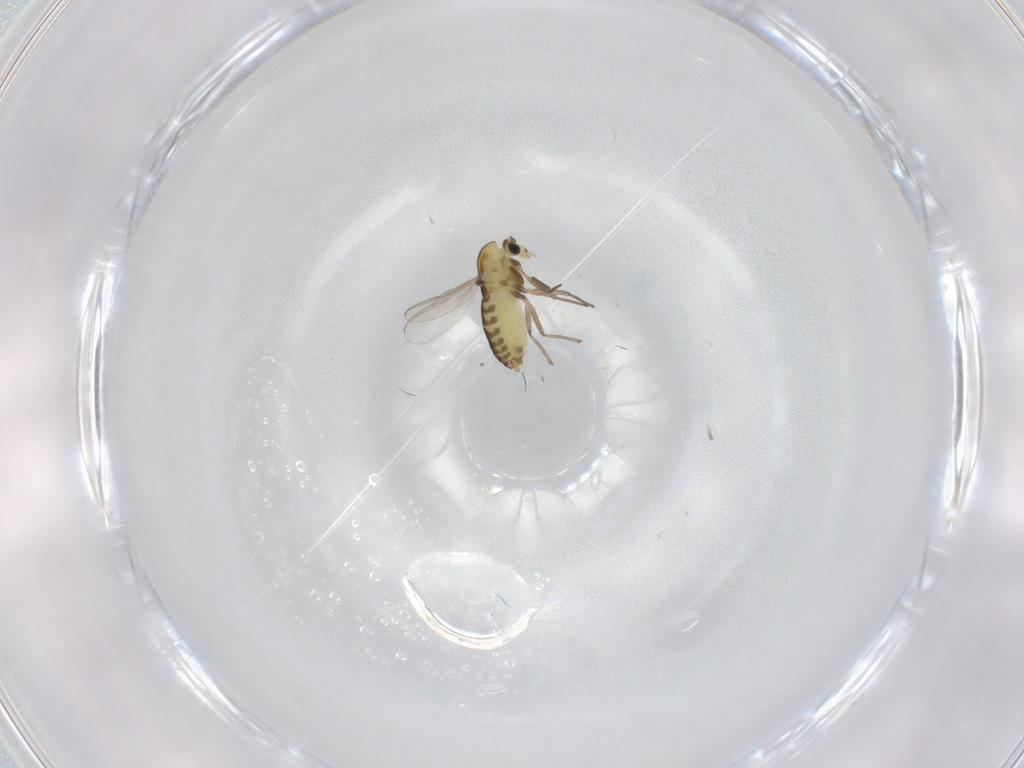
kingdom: Animalia
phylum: Arthropoda
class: Insecta
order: Diptera
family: Chironomidae
